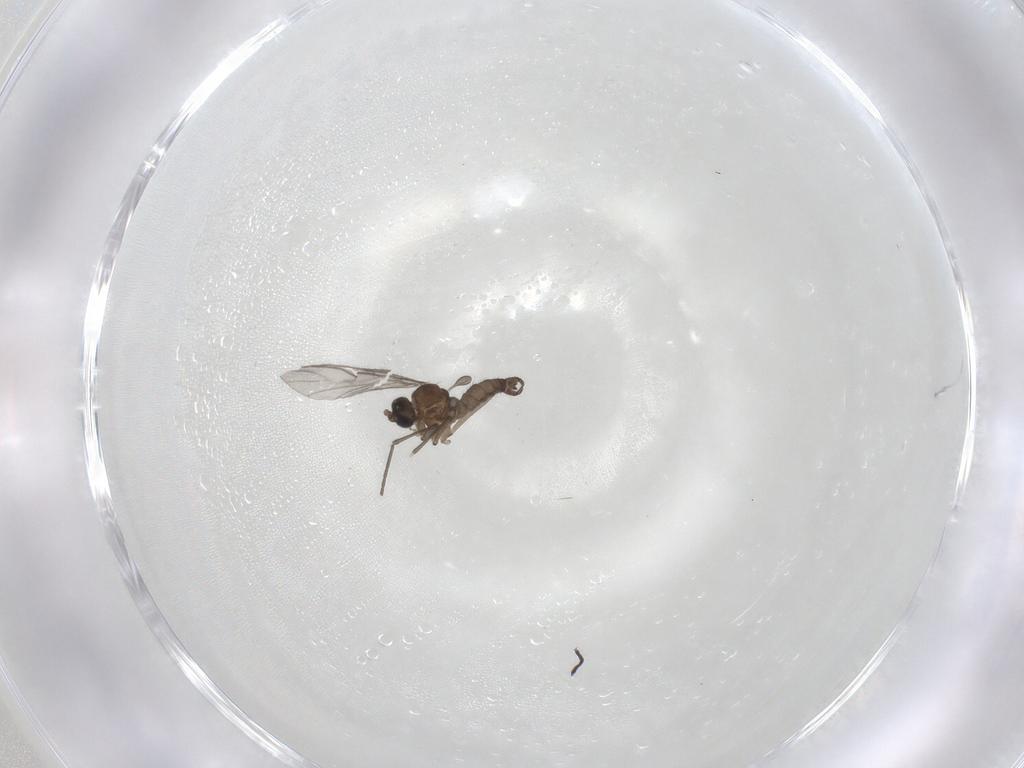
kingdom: Animalia
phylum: Arthropoda
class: Insecta
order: Diptera
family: Sciaridae
